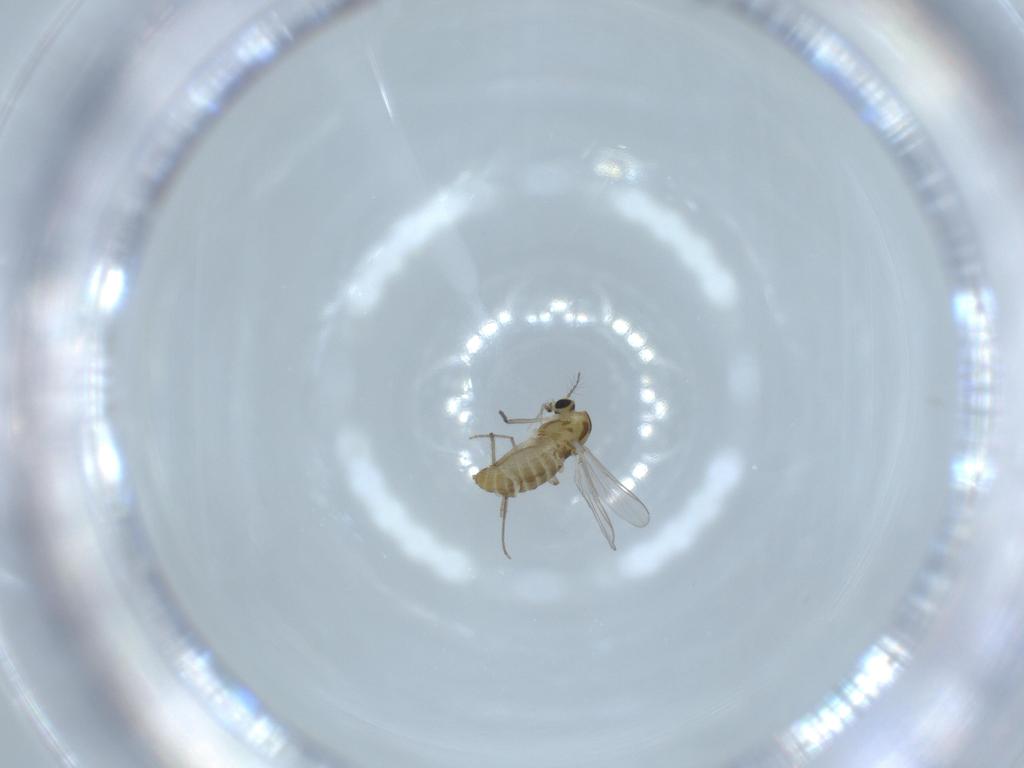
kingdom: Animalia
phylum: Arthropoda
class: Insecta
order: Diptera
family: Chironomidae
